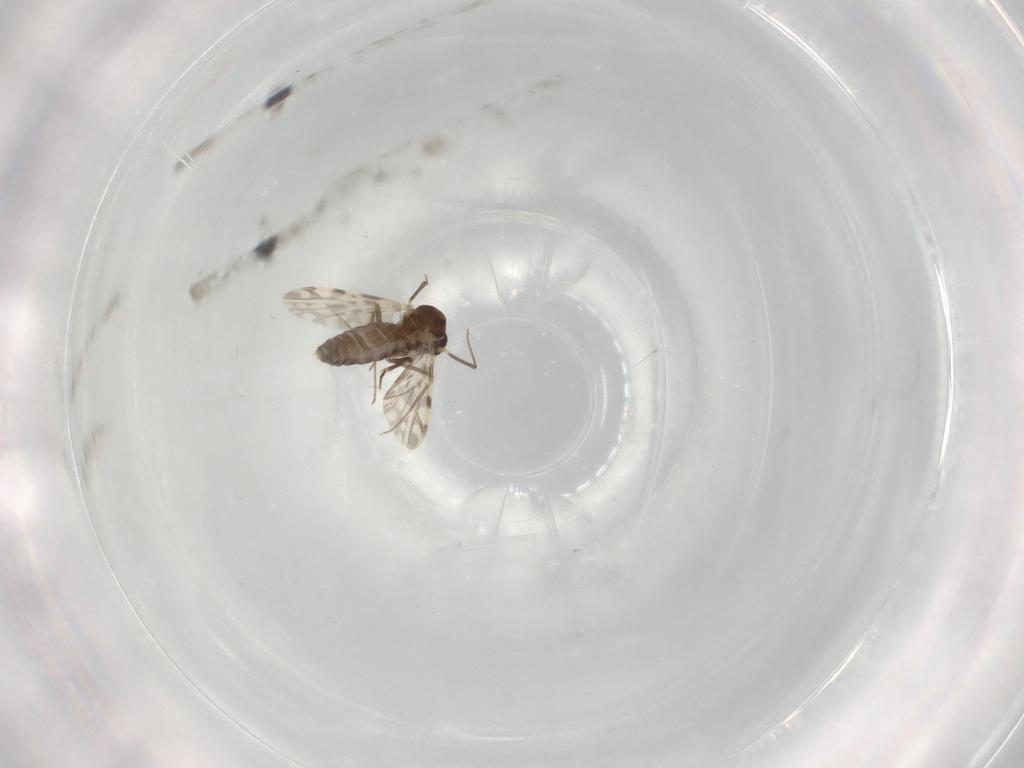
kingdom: Animalia
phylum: Arthropoda
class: Insecta
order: Diptera
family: Ceratopogonidae
